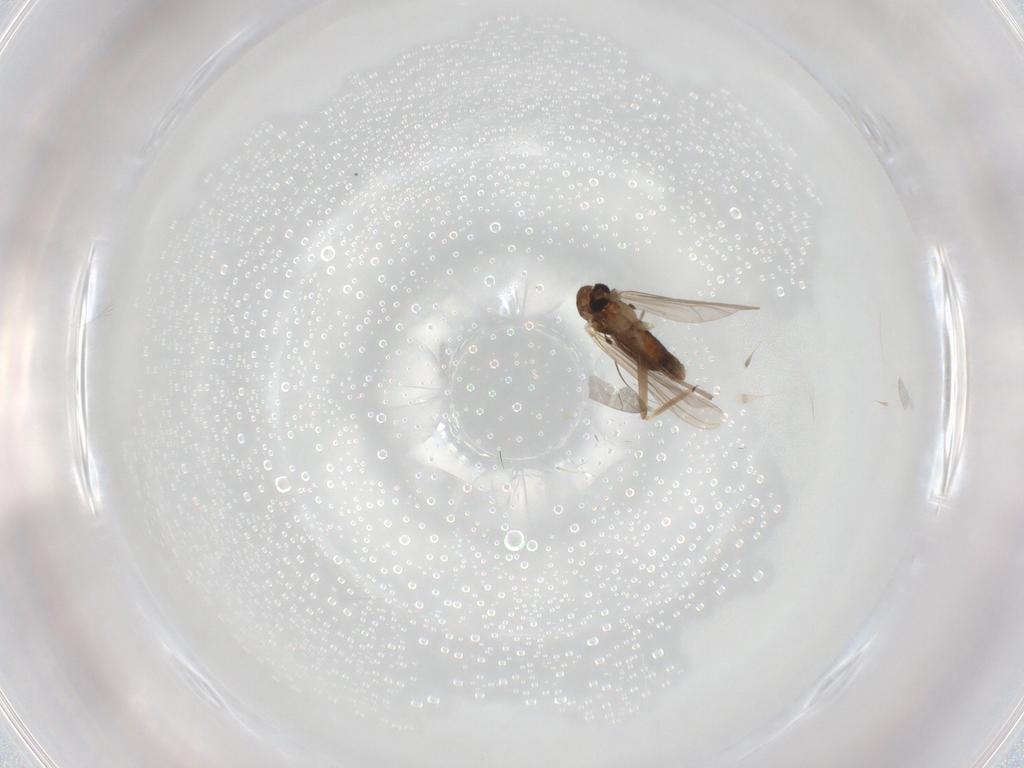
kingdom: Animalia
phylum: Arthropoda
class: Insecta
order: Diptera
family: Chironomidae
